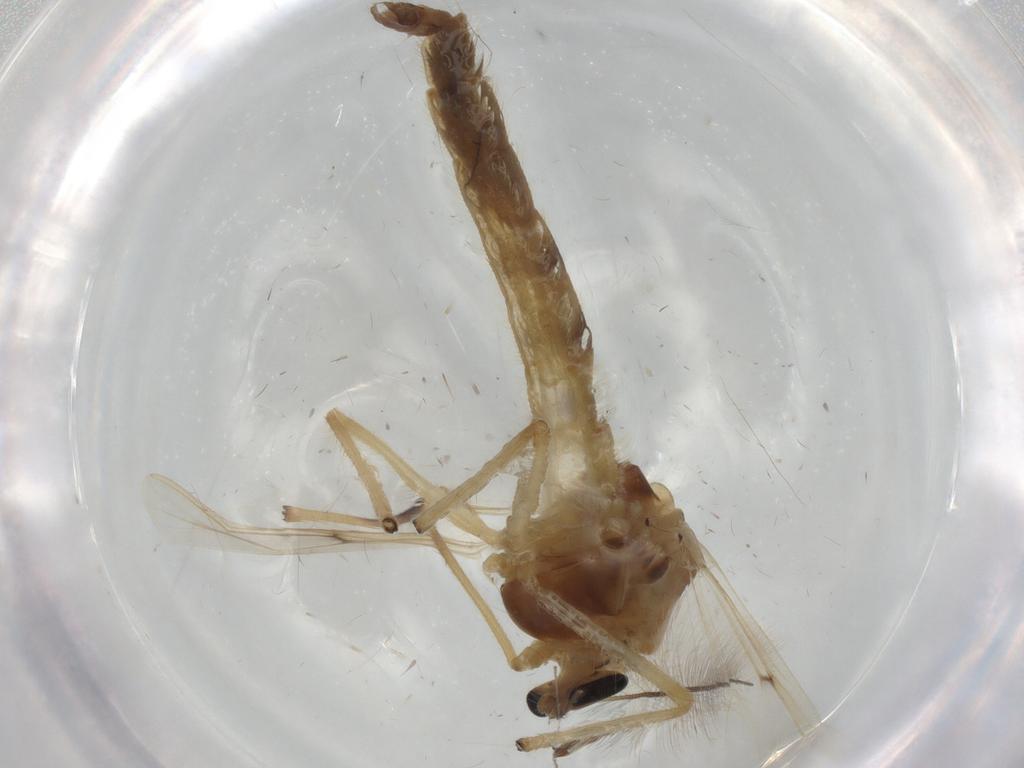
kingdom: Animalia
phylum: Arthropoda
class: Insecta
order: Diptera
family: Chironomidae
